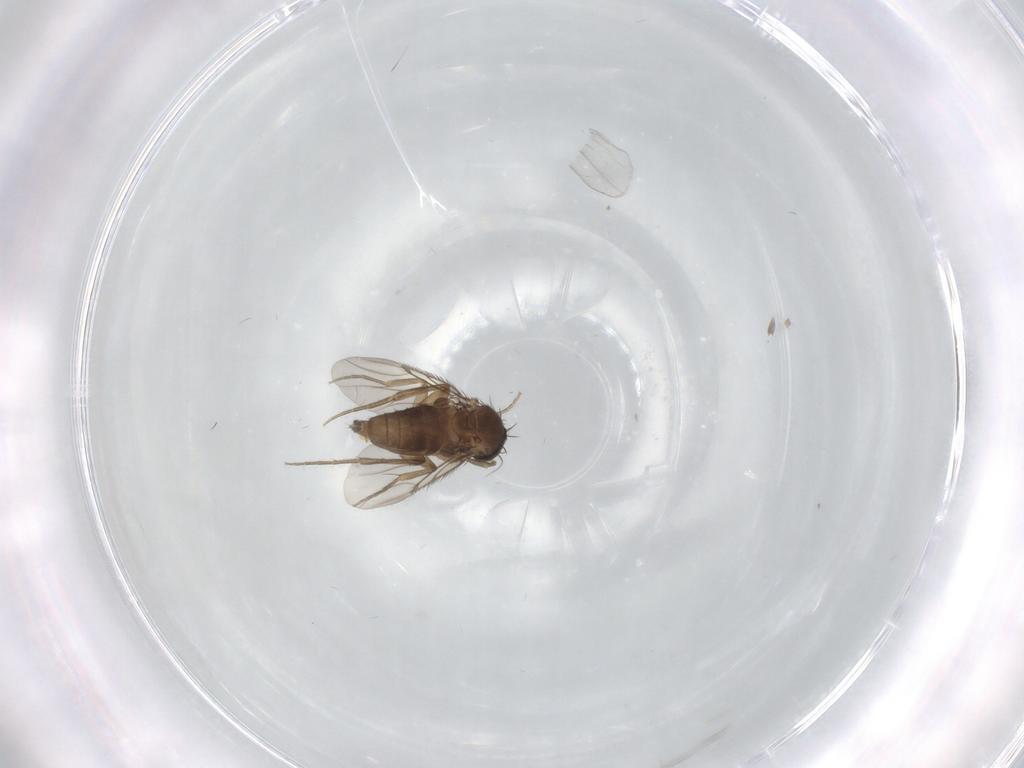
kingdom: Animalia
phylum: Arthropoda
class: Insecta
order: Diptera
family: Phoridae
